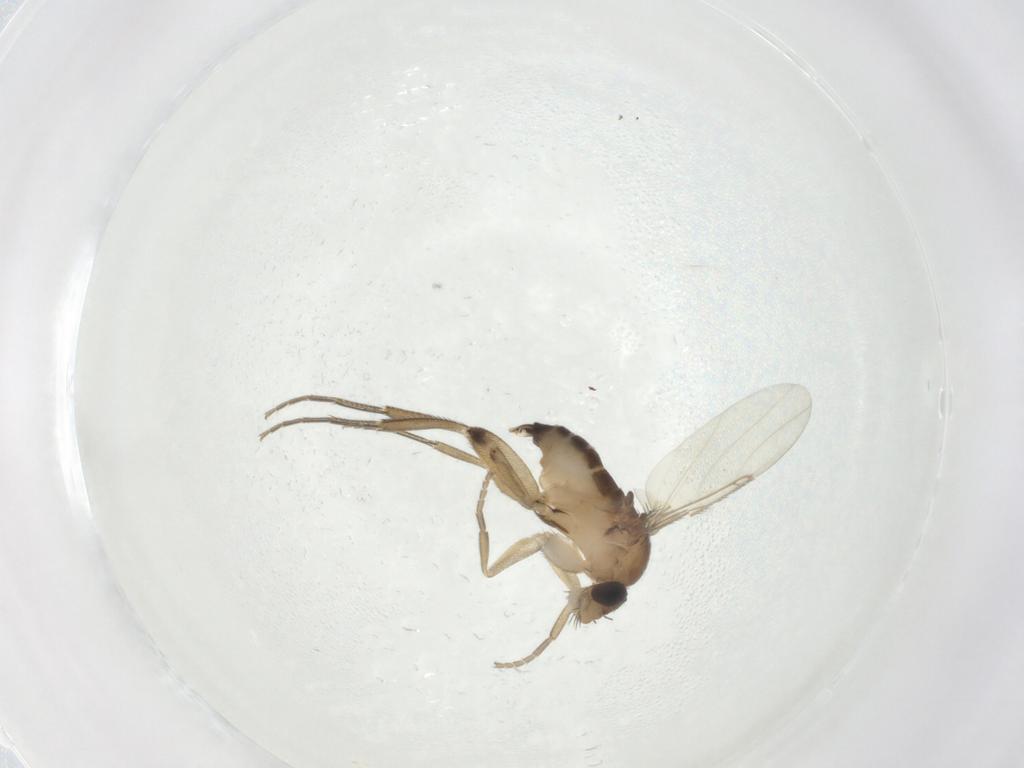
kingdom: Animalia
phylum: Arthropoda
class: Insecta
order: Diptera
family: Phoridae
